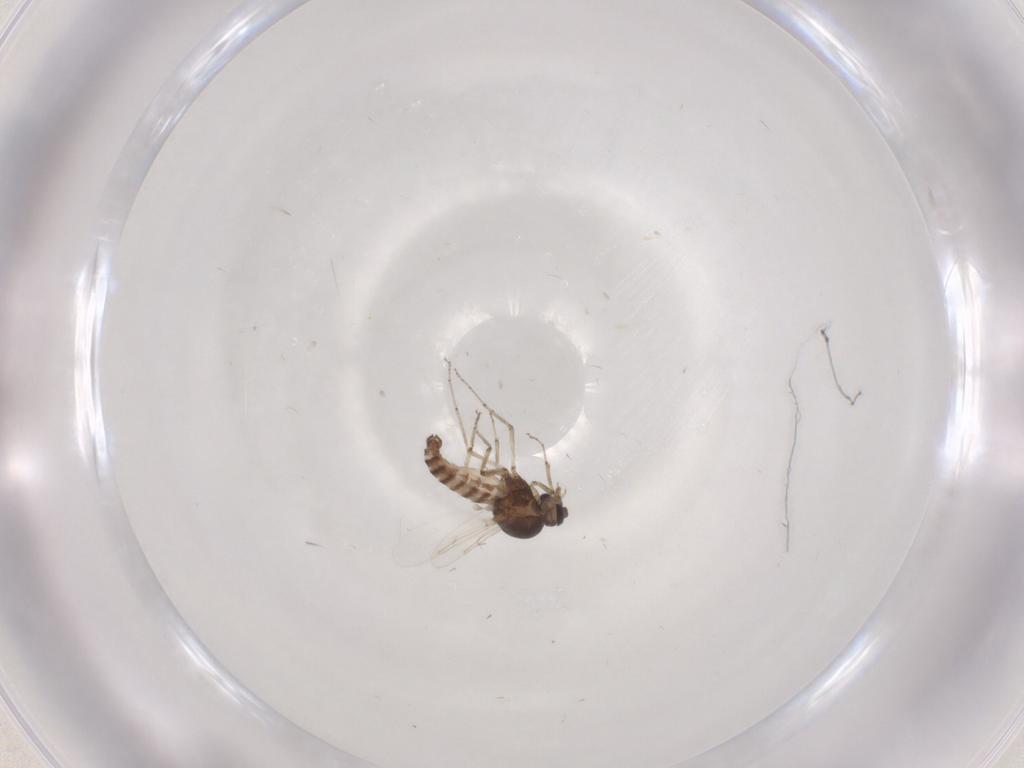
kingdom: Animalia
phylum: Arthropoda
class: Insecta
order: Diptera
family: Ceratopogonidae
